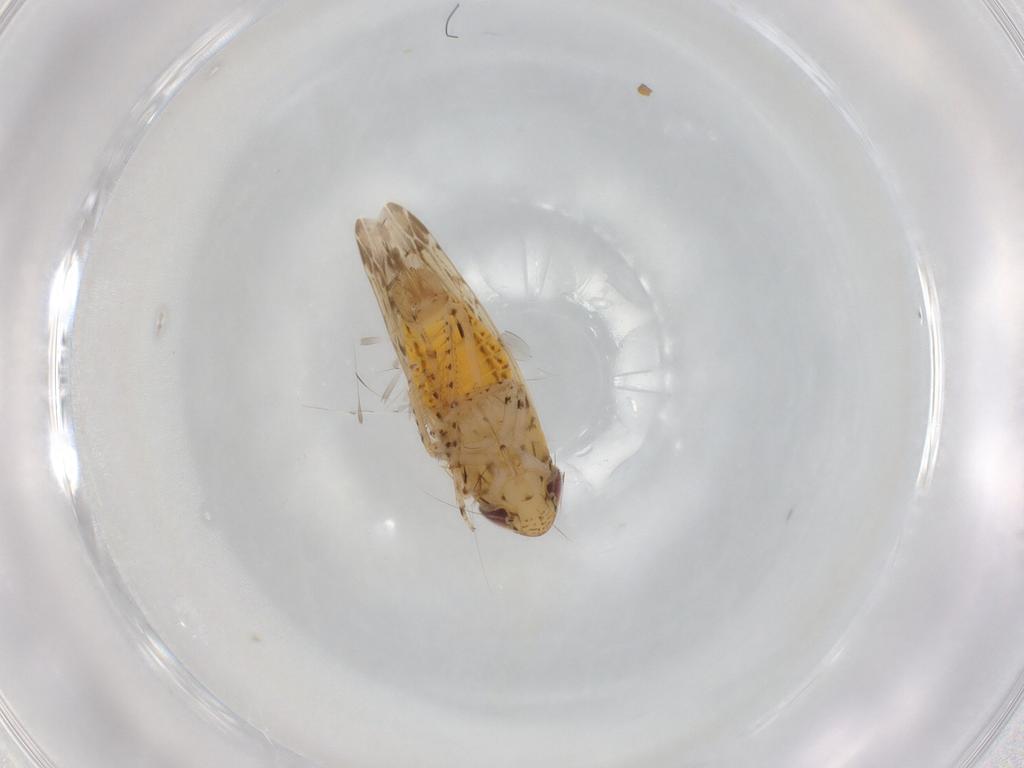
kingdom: Animalia
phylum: Arthropoda
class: Insecta
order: Hemiptera
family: Cicadellidae
